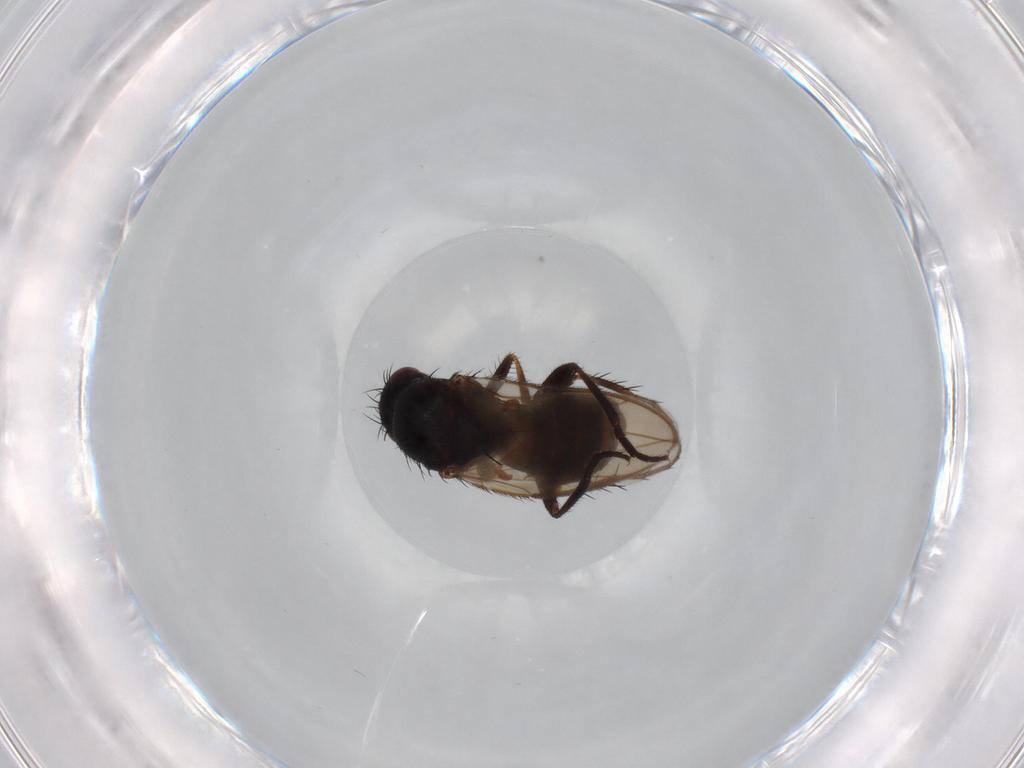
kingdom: Animalia
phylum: Arthropoda
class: Insecta
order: Diptera
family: Sphaeroceridae
